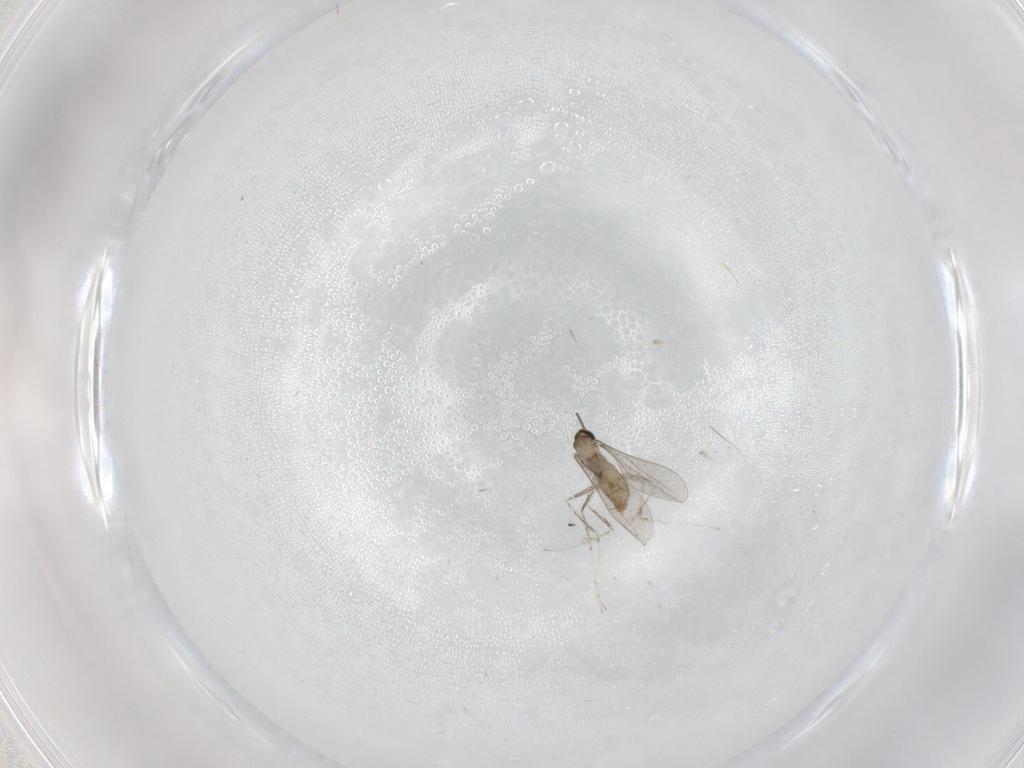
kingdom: Animalia
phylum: Arthropoda
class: Insecta
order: Diptera
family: Cecidomyiidae
